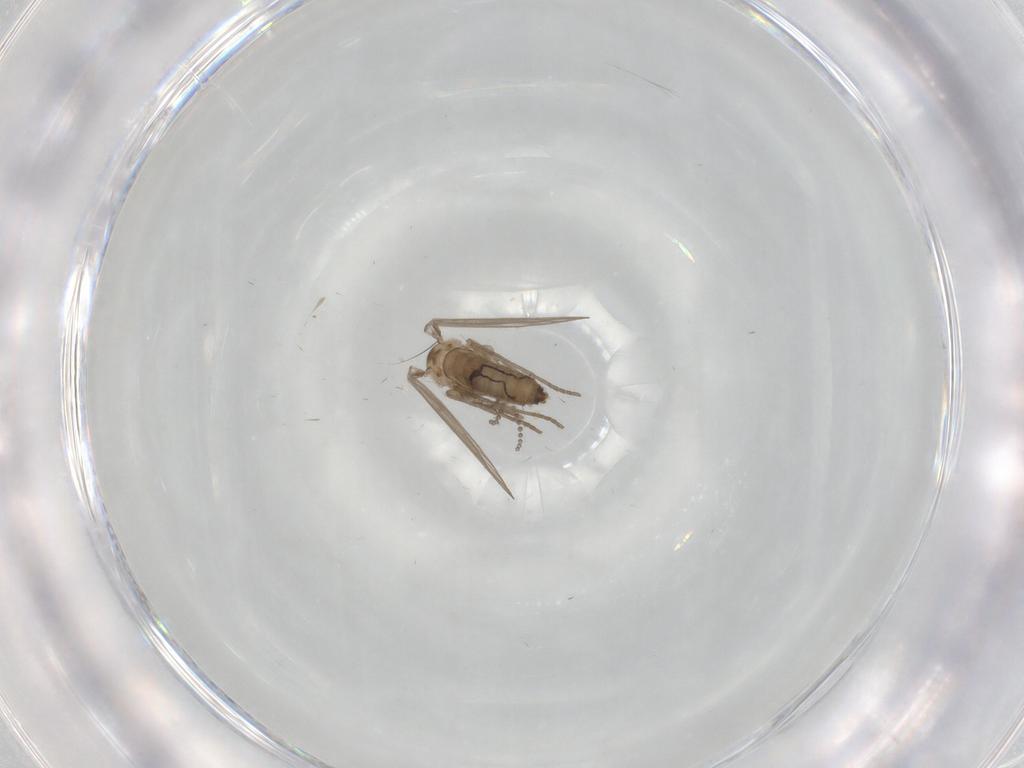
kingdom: Animalia
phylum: Arthropoda
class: Insecta
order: Diptera
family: Psychodidae
